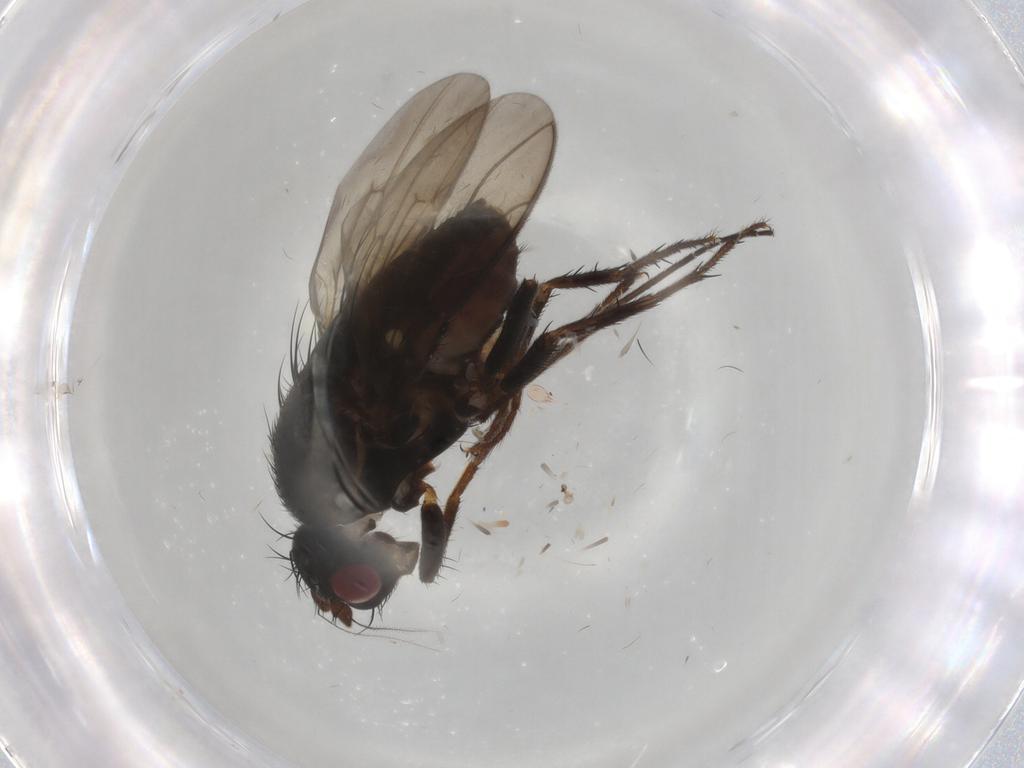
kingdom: Animalia
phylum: Arthropoda
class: Insecta
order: Diptera
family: Sphaeroceridae
